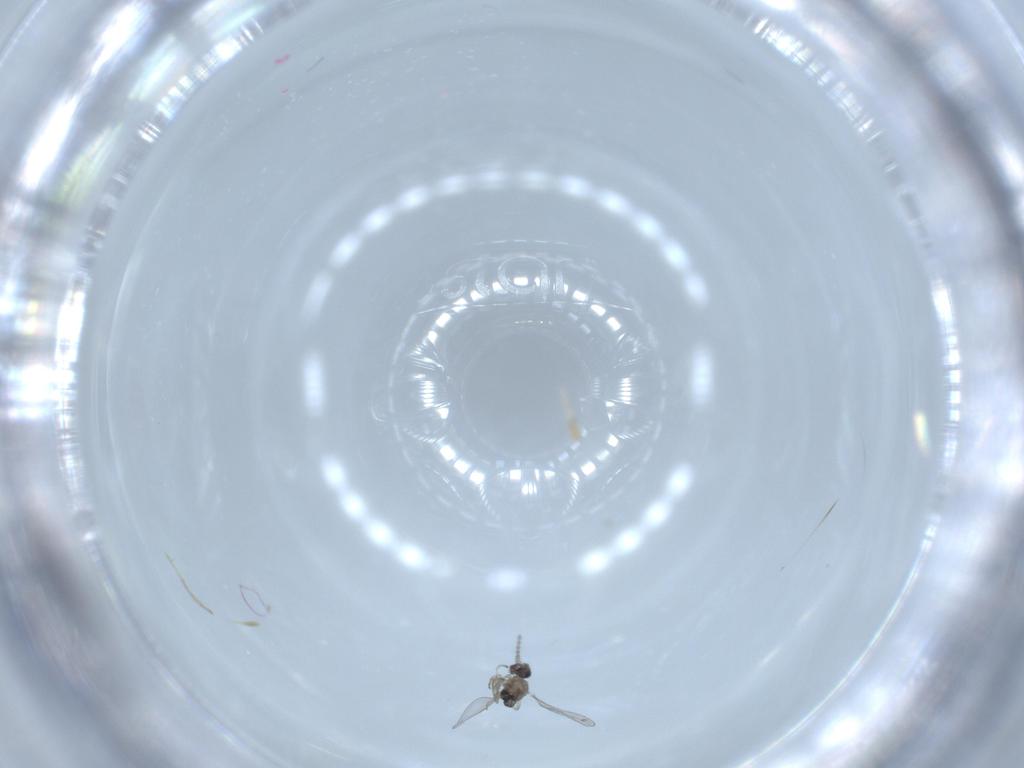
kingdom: Animalia
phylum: Arthropoda
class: Insecta
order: Diptera
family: Cecidomyiidae
